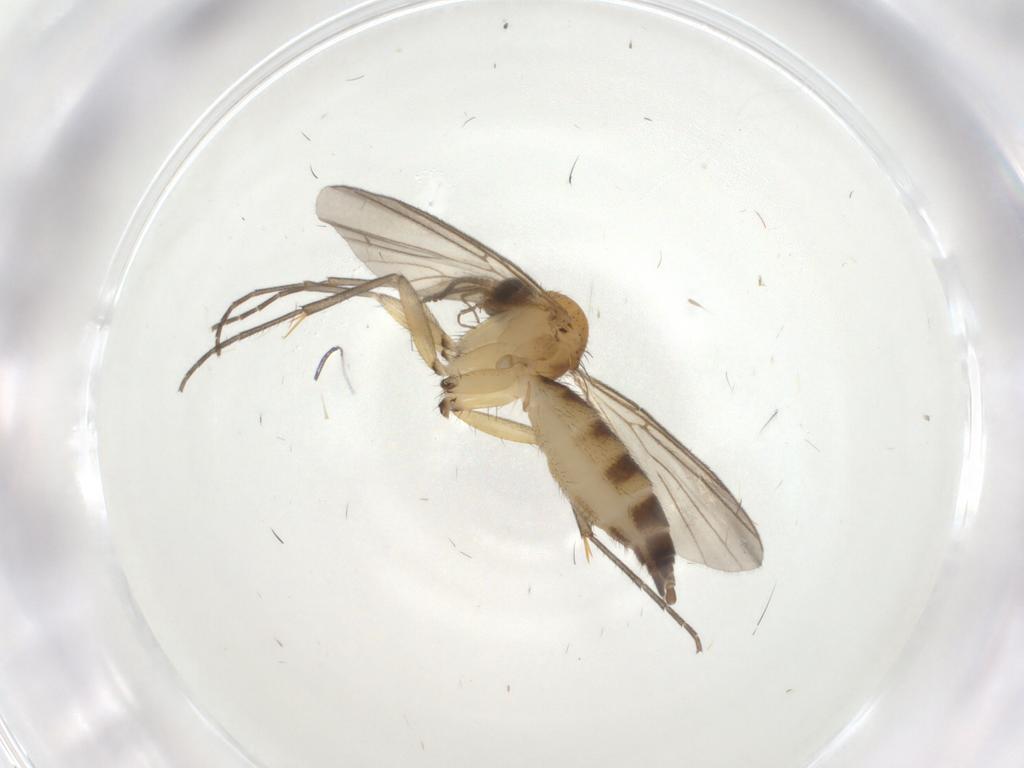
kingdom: Animalia
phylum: Arthropoda
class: Insecta
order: Diptera
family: Mycetophilidae
